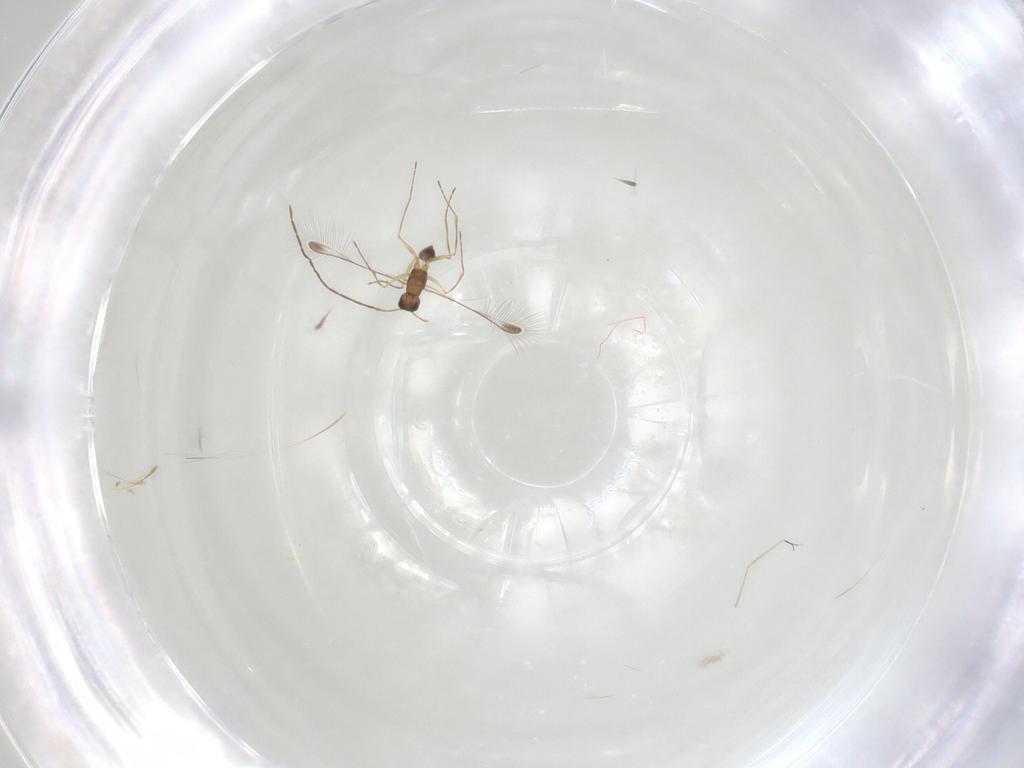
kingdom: Animalia
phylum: Arthropoda
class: Insecta
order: Hymenoptera
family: Mymaridae
